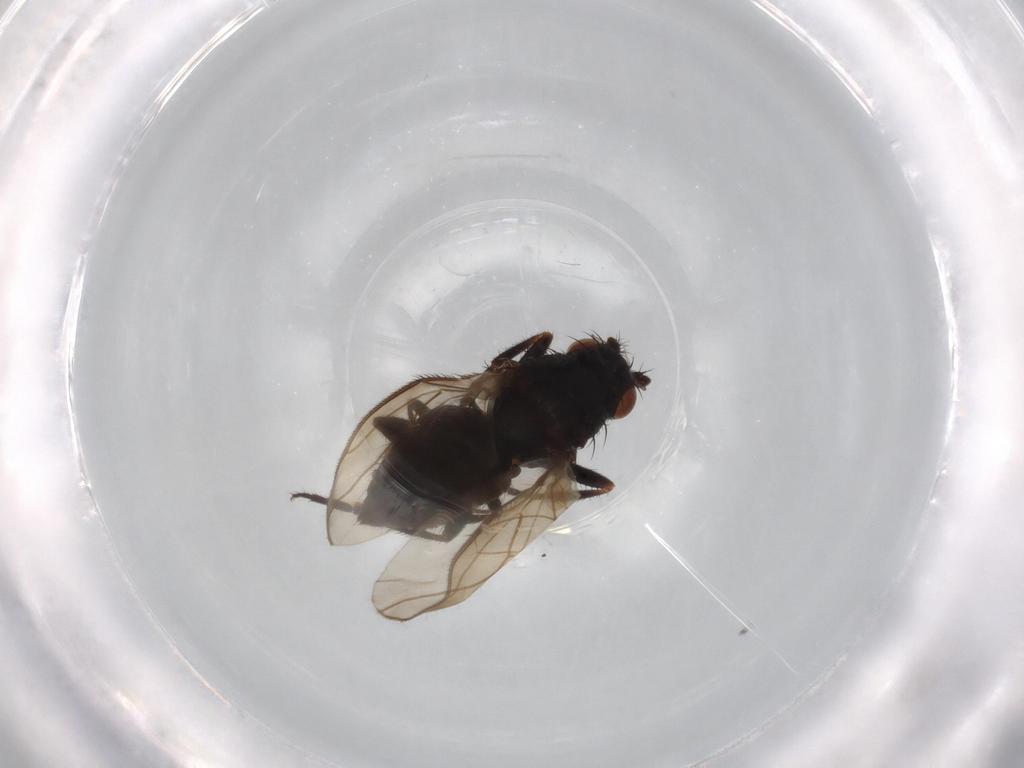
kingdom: Animalia
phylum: Arthropoda
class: Insecta
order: Diptera
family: Sphaeroceridae
